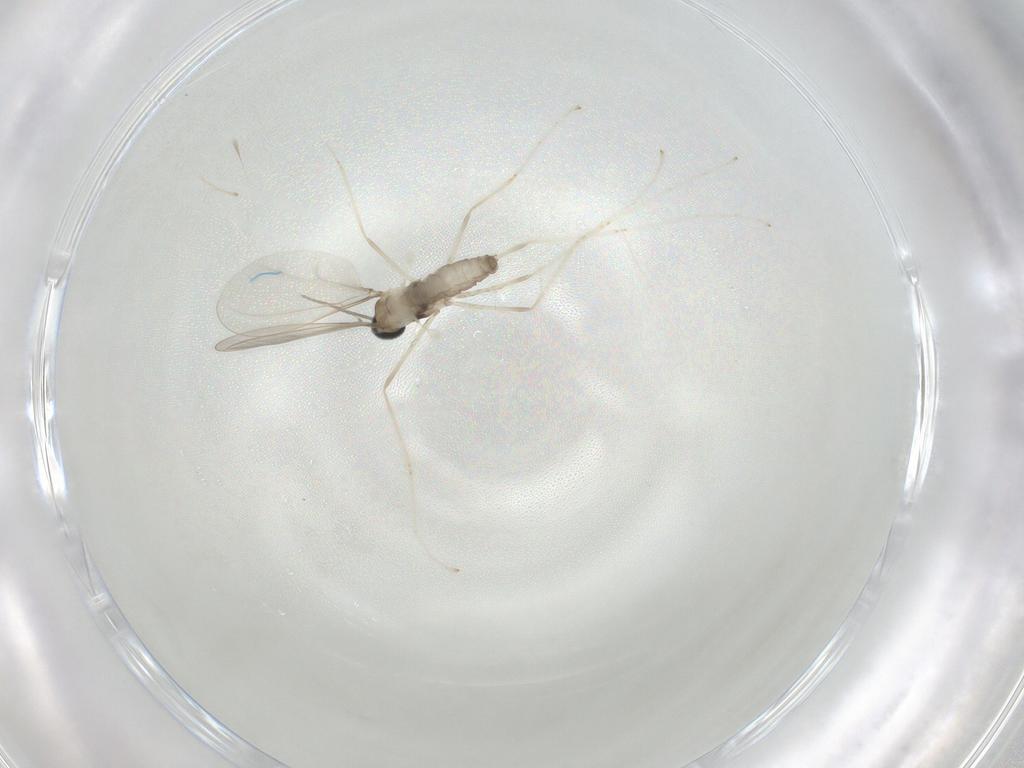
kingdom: Animalia
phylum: Arthropoda
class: Insecta
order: Diptera
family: Cecidomyiidae
